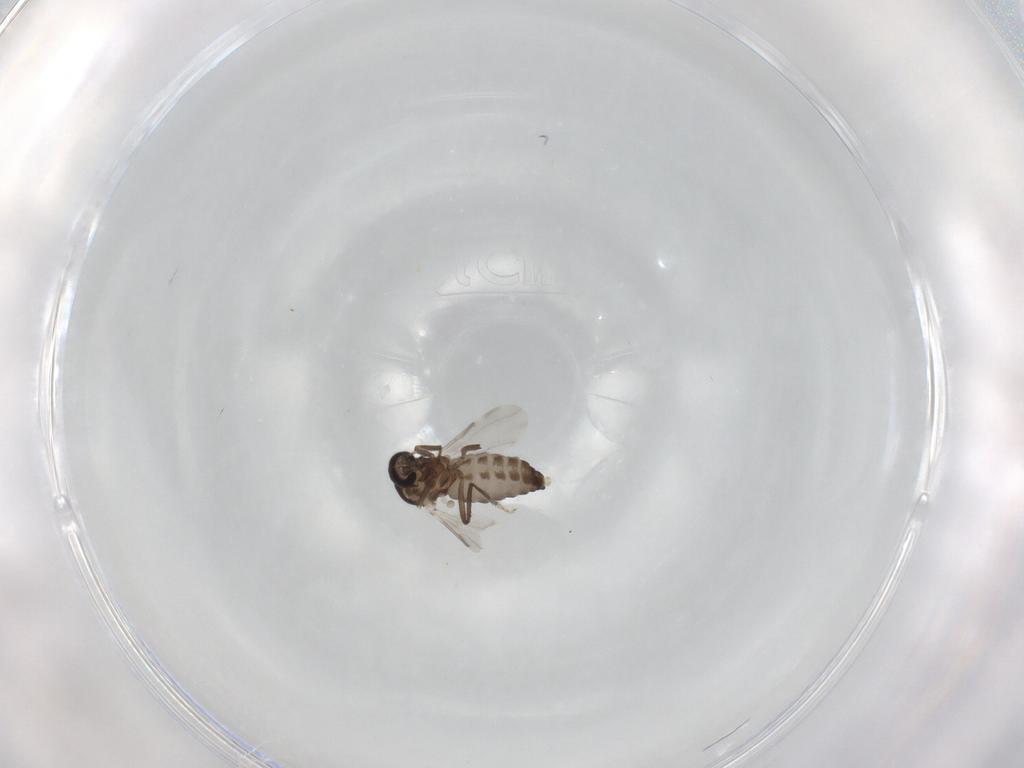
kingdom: Animalia
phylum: Arthropoda
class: Insecta
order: Diptera
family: Ceratopogonidae
